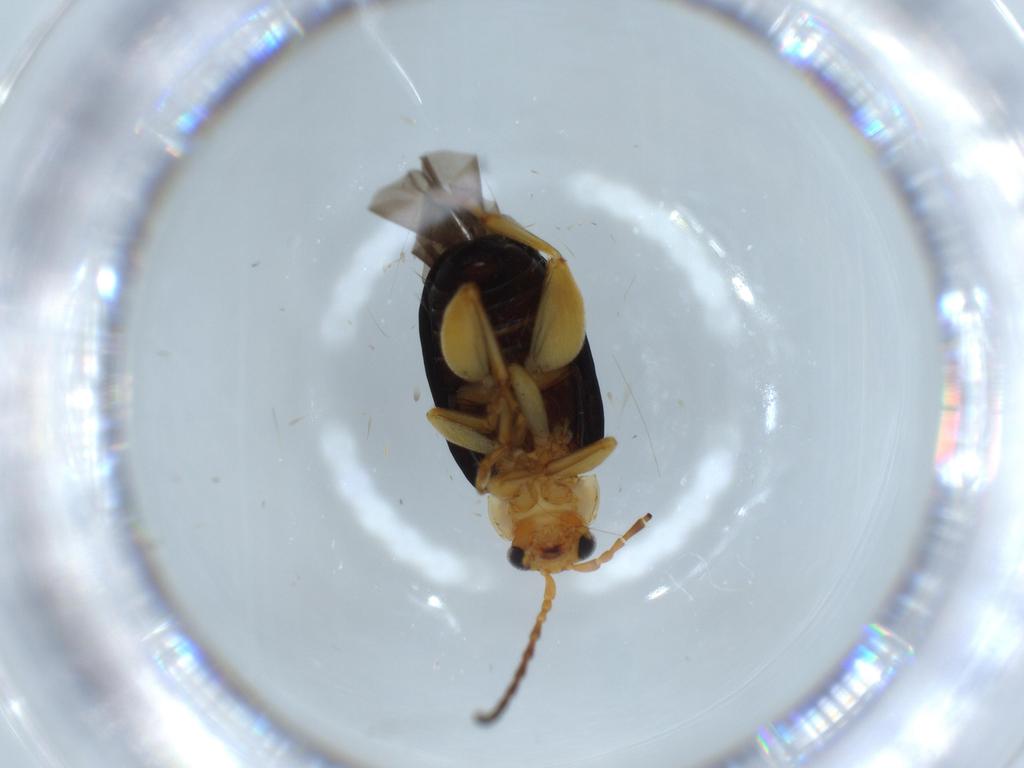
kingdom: Animalia
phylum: Arthropoda
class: Insecta
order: Coleoptera
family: Chrysomelidae
